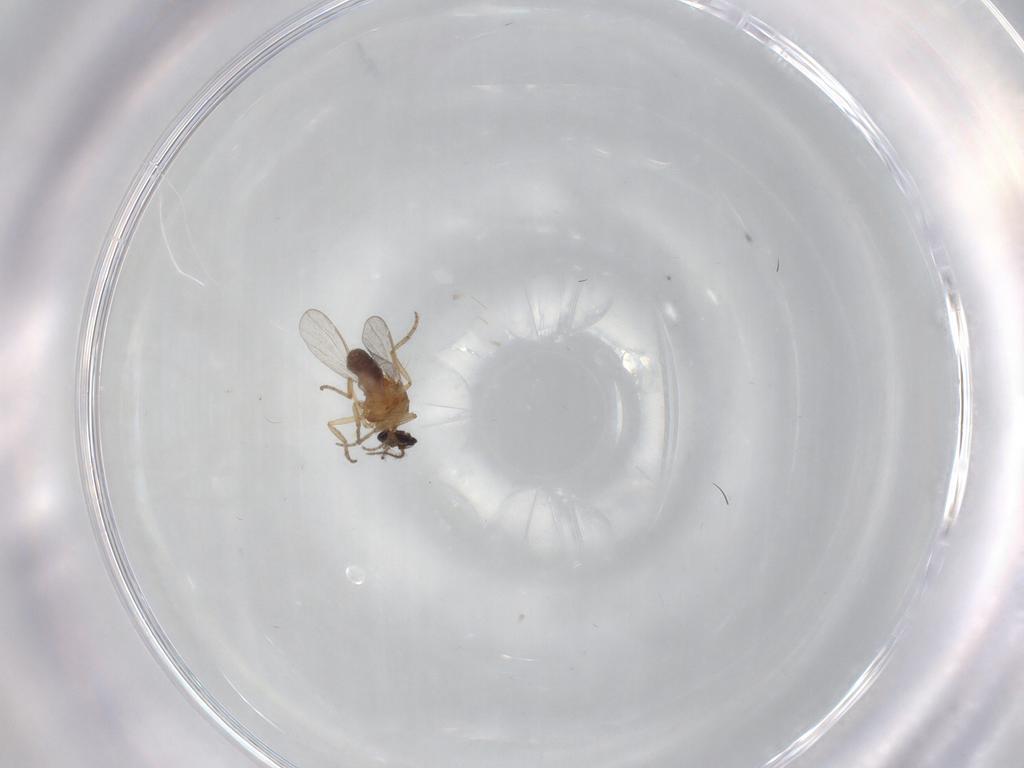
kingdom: Animalia
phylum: Arthropoda
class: Insecta
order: Diptera
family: Ceratopogonidae
